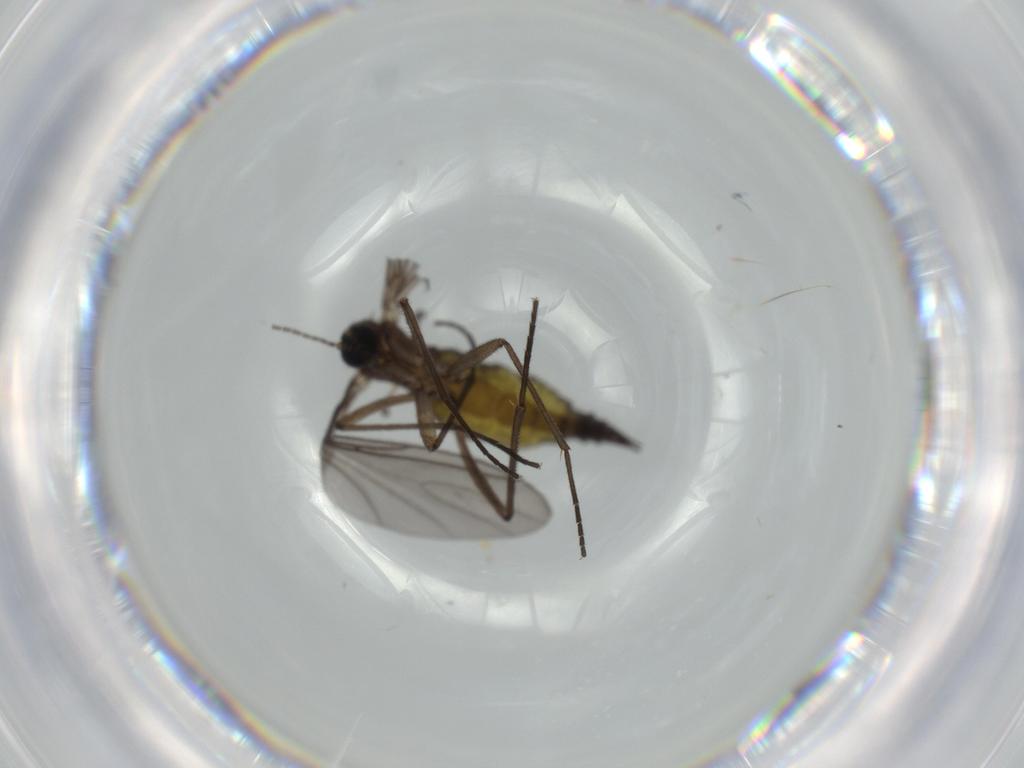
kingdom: Animalia
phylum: Arthropoda
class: Insecta
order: Diptera
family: Sciaridae
